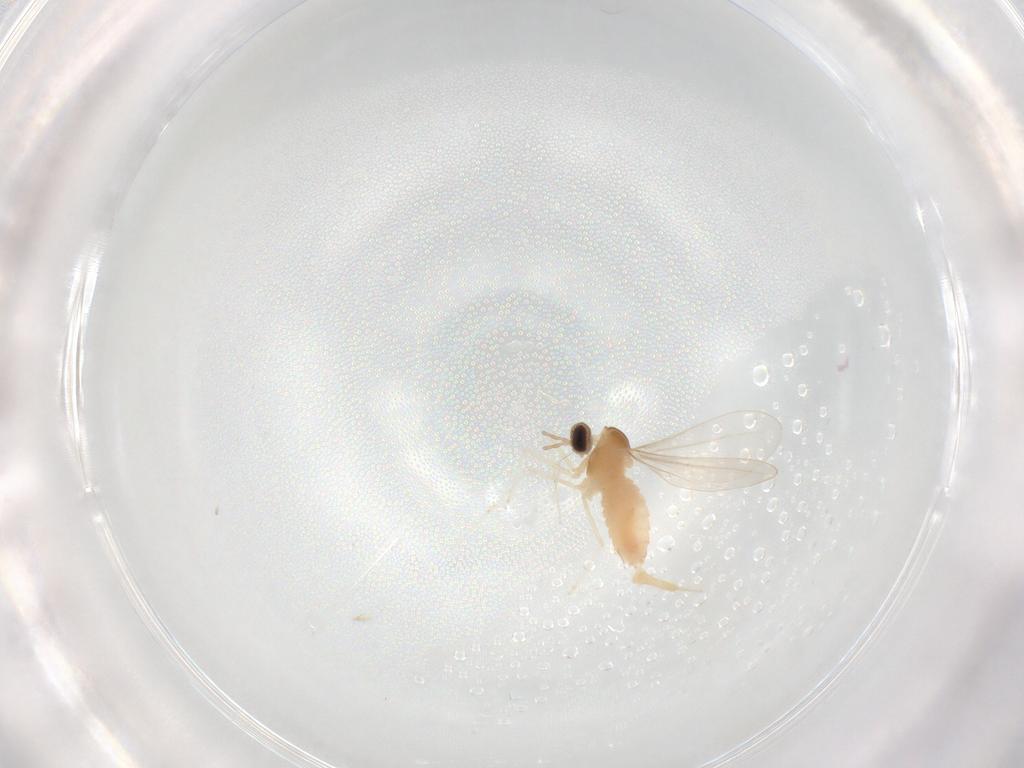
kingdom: Animalia
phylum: Arthropoda
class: Insecta
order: Diptera
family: Cecidomyiidae
